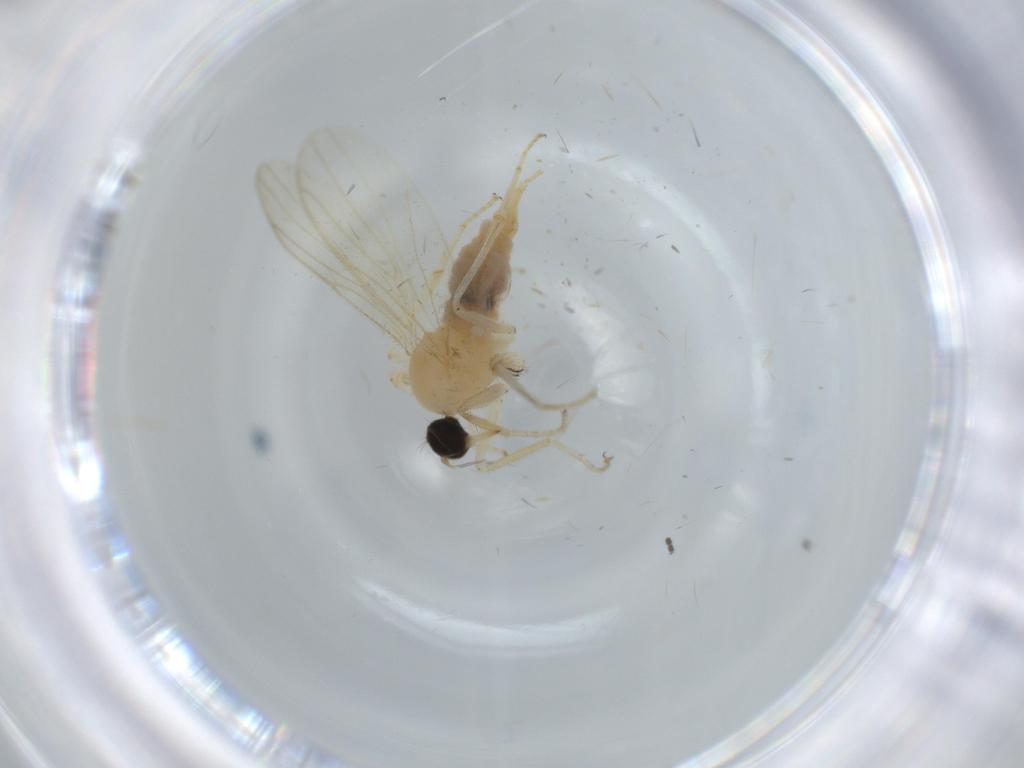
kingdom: Animalia
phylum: Arthropoda
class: Insecta
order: Diptera
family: Hybotidae
